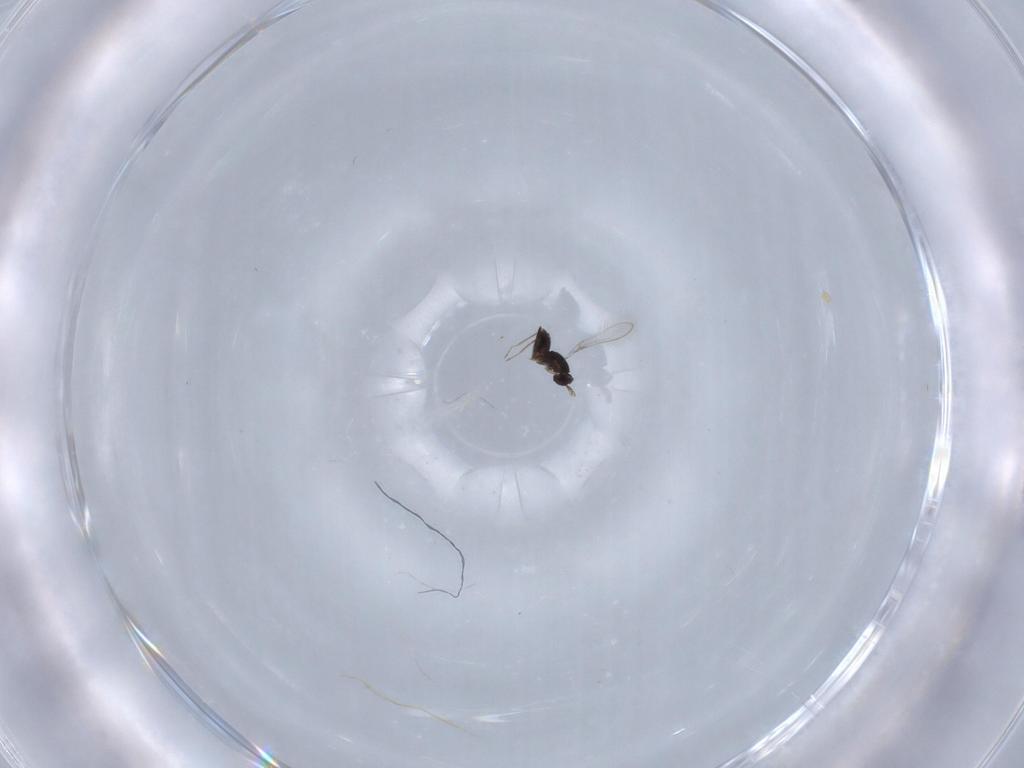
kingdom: Animalia
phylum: Arthropoda
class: Insecta
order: Hymenoptera
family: Mymaridae
